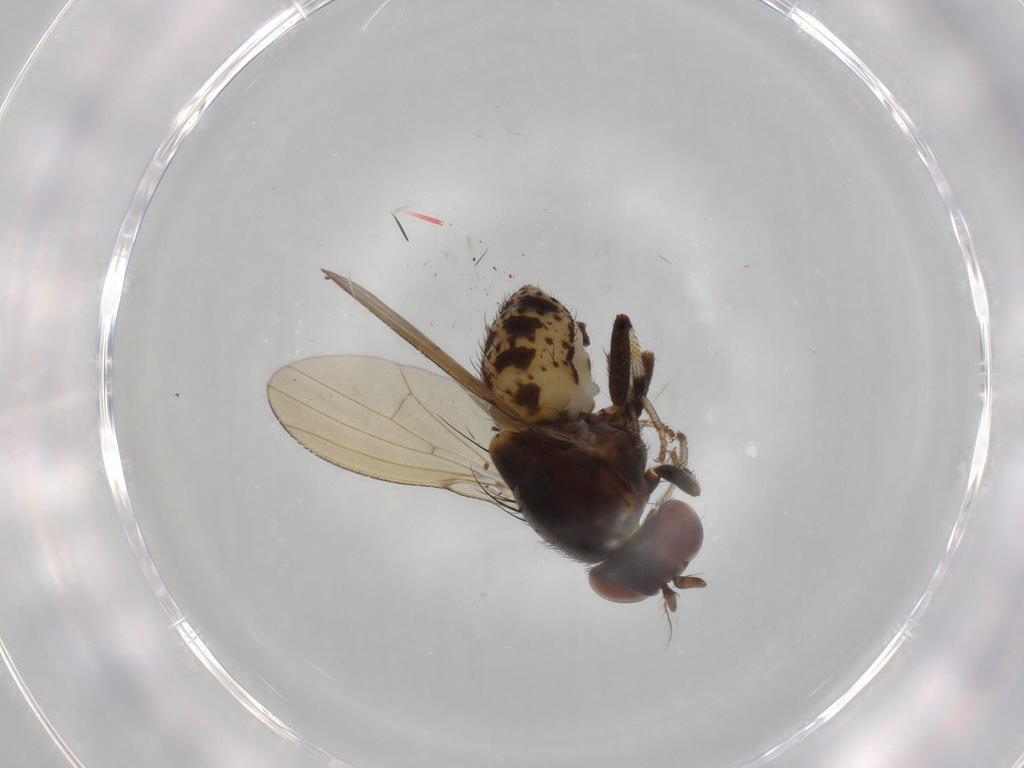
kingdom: Animalia
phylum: Arthropoda
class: Insecta
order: Diptera
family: Cecidomyiidae
